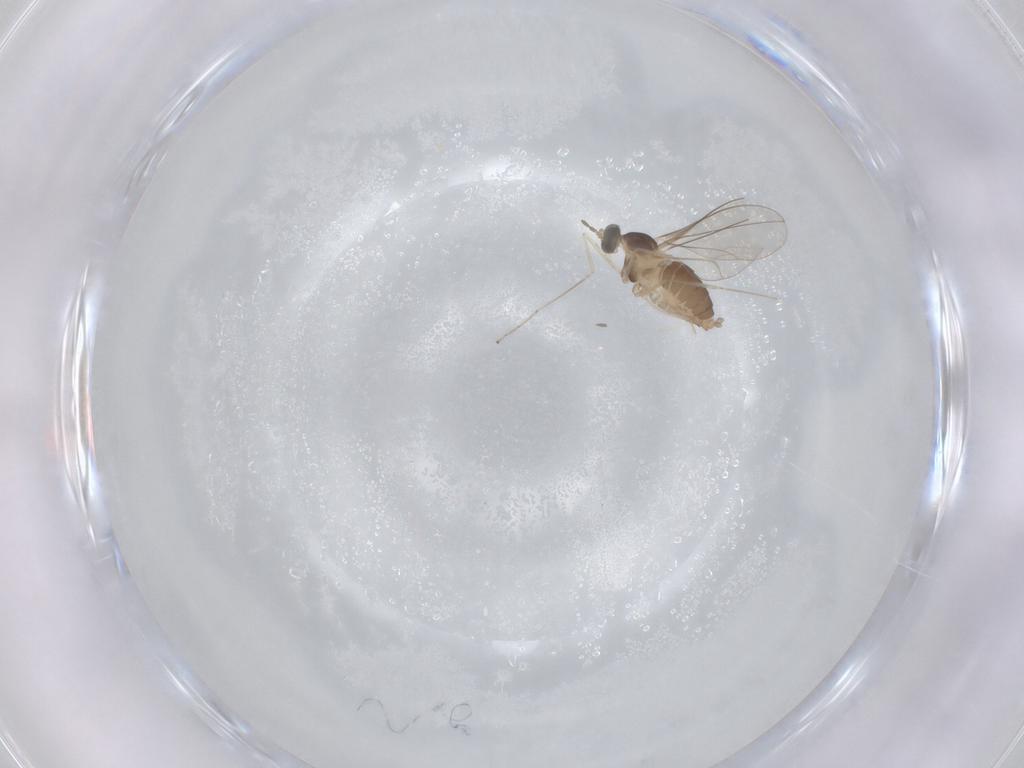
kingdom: Animalia
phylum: Arthropoda
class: Insecta
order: Diptera
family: Cecidomyiidae
